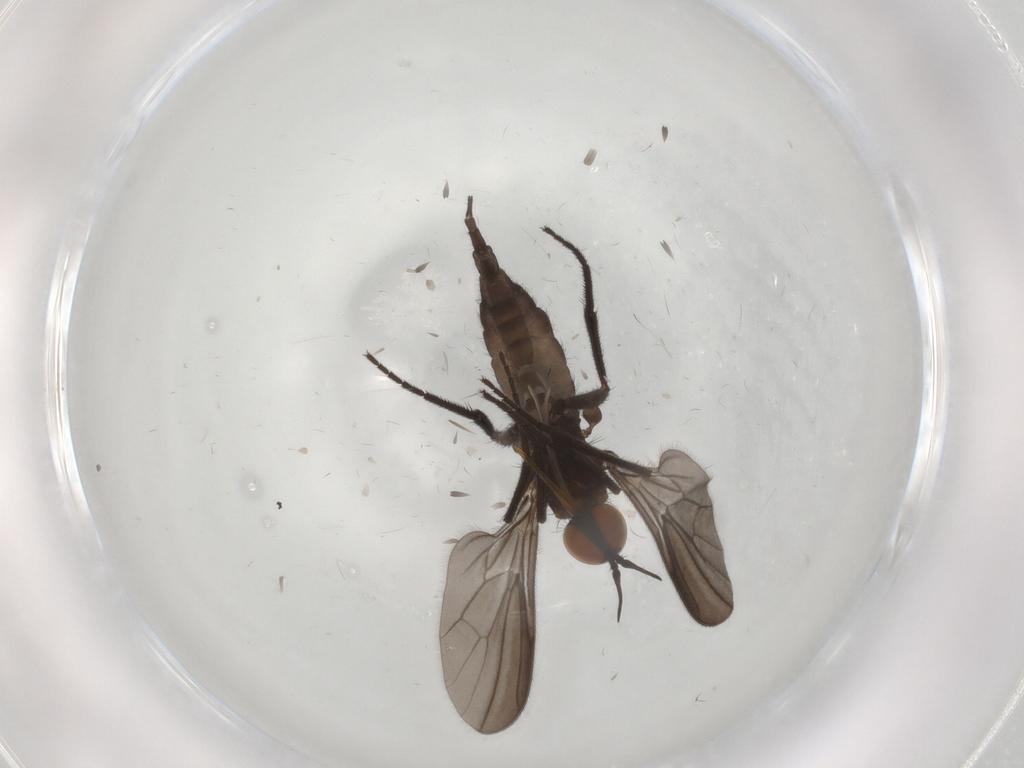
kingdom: Animalia
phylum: Arthropoda
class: Insecta
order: Diptera
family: Empididae
